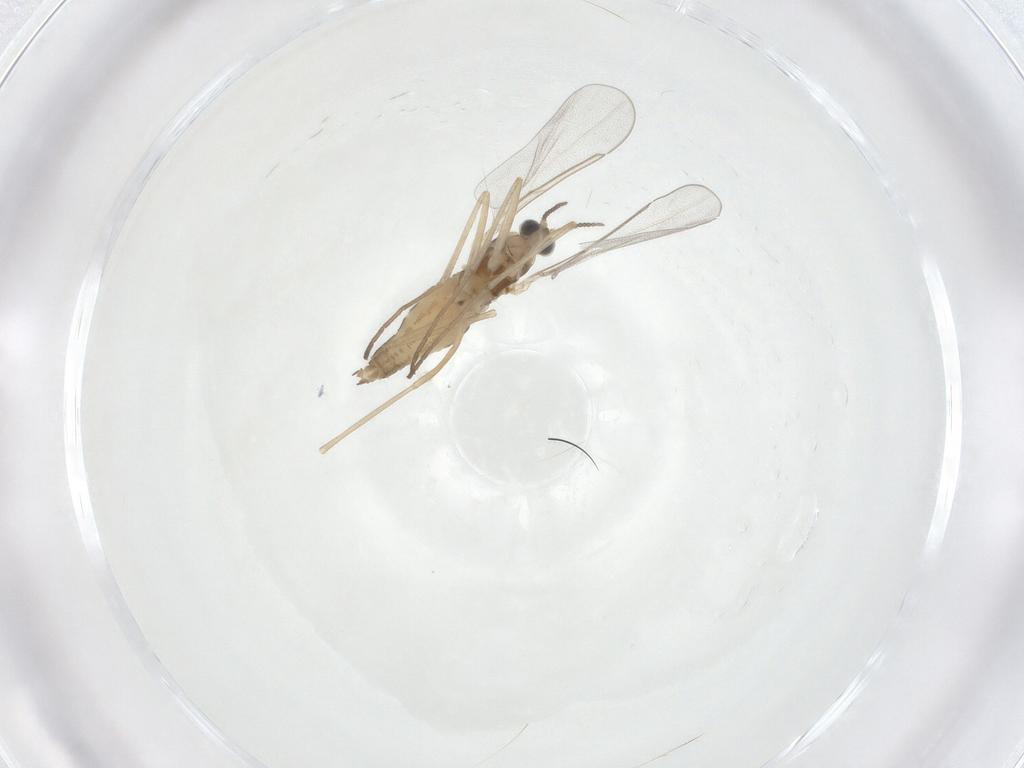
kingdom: Animalia
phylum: Arthropoda
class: Insecta
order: Diptera
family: Cecidomyiidae
